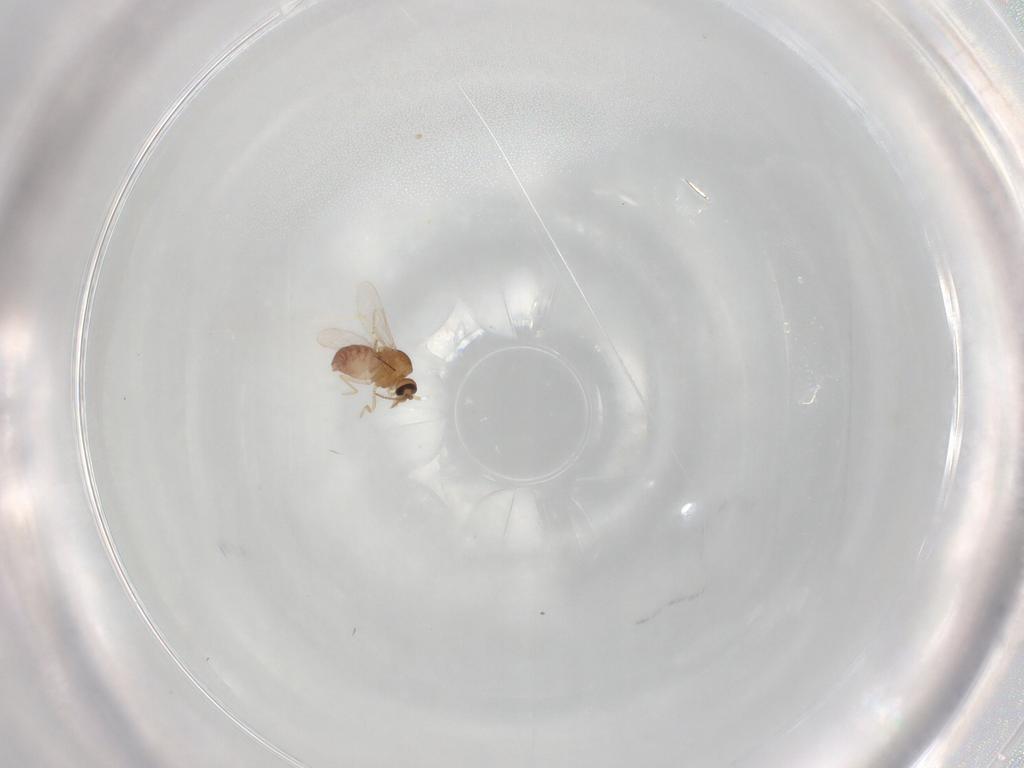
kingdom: Animalia
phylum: Arthropoda
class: Insecta
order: Diptera
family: Ceratopogonidae
